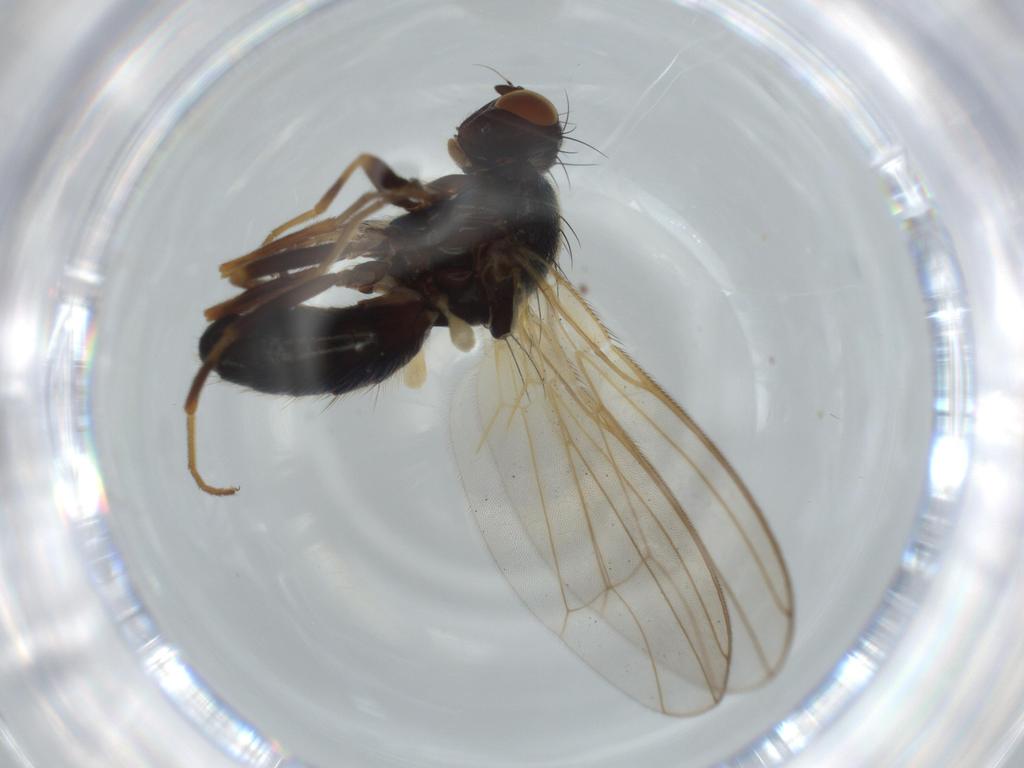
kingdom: Animalia
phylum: Arthropoda
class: Insecta
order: Diptera
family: Culicidae
